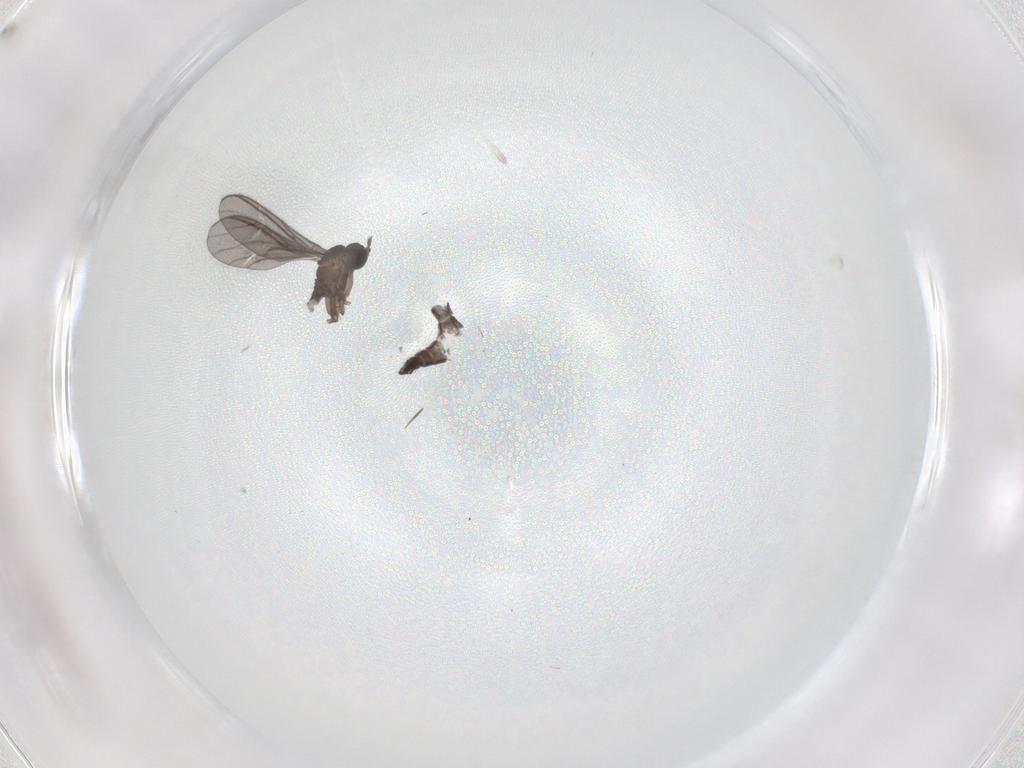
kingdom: Animalia
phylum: Arthropoda
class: Insecta
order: Diptera
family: Sciaridae
